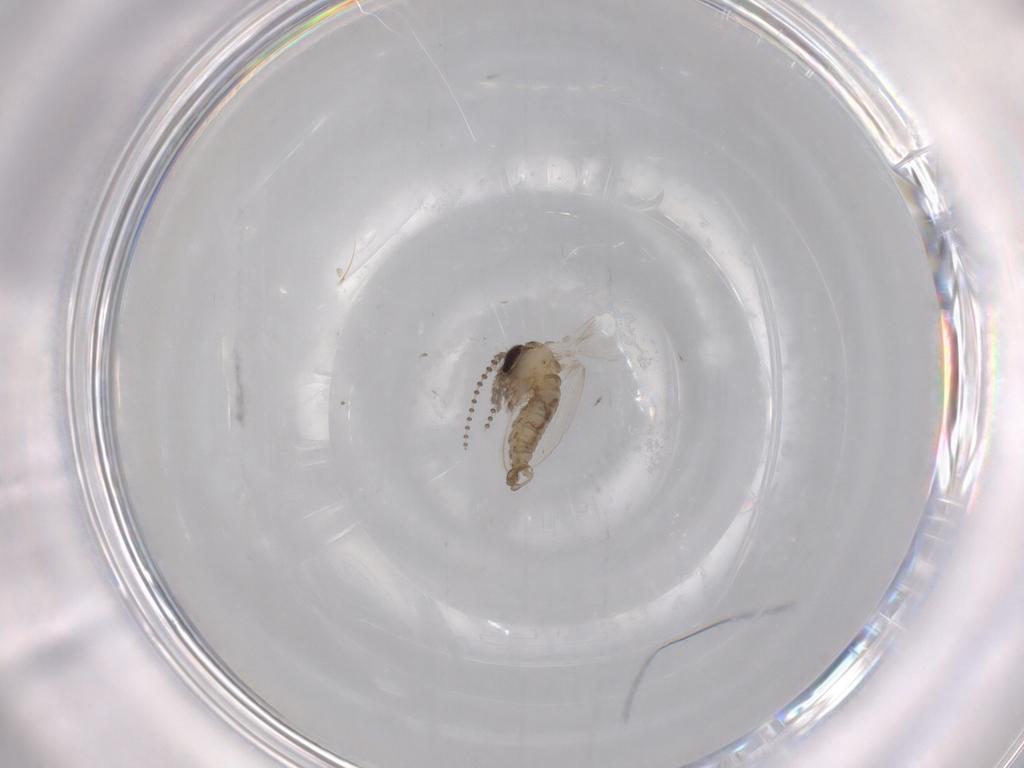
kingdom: Animalia
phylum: Arthropoda
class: Insecta
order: Diptera
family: Psychodidae
